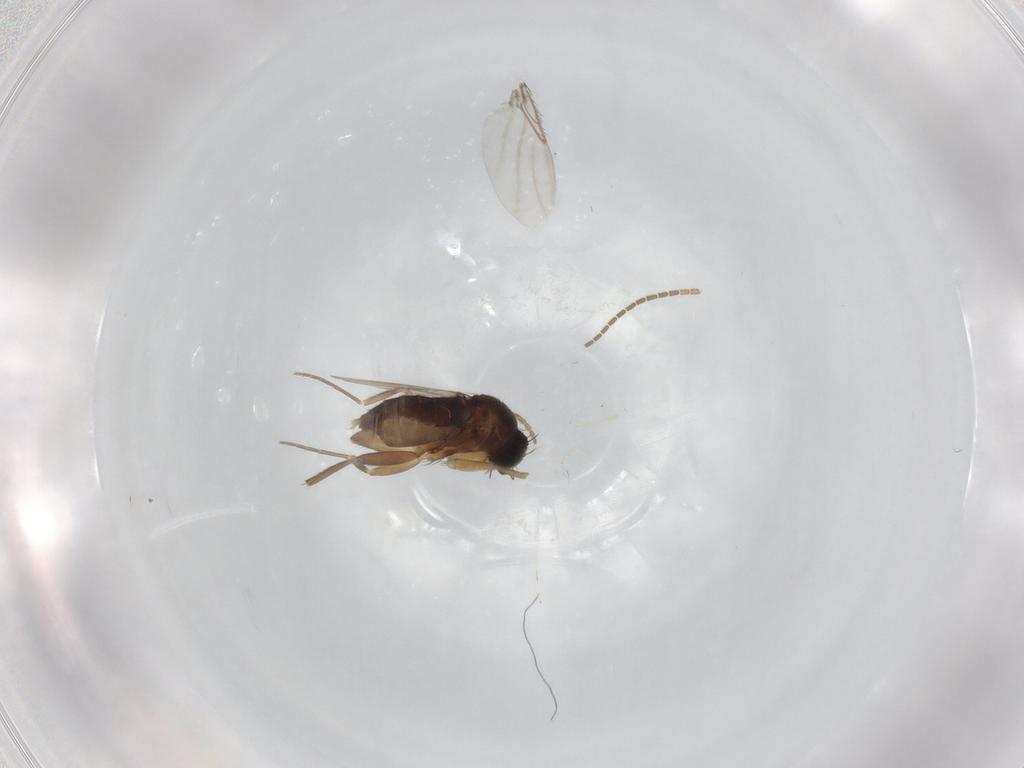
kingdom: Animalia
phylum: Arthropoda
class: Insecta
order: Diptera
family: Phoridae
